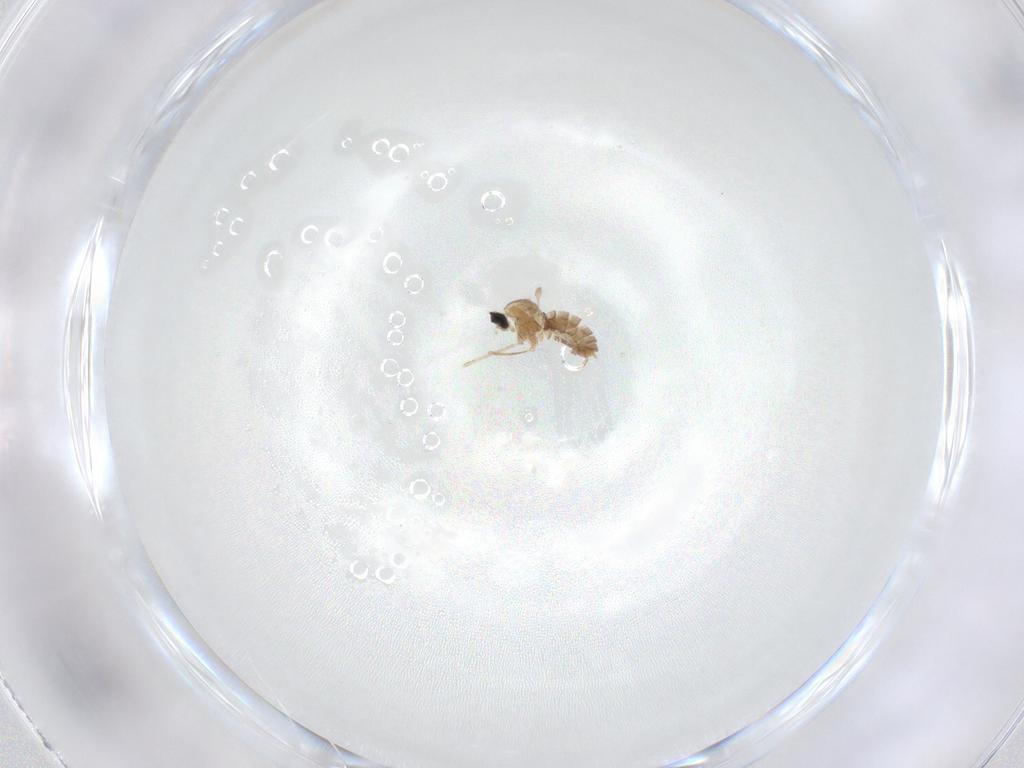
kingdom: Animalia
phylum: Arthropoda
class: Insecta
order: Diptera
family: Cecidomyiidae
